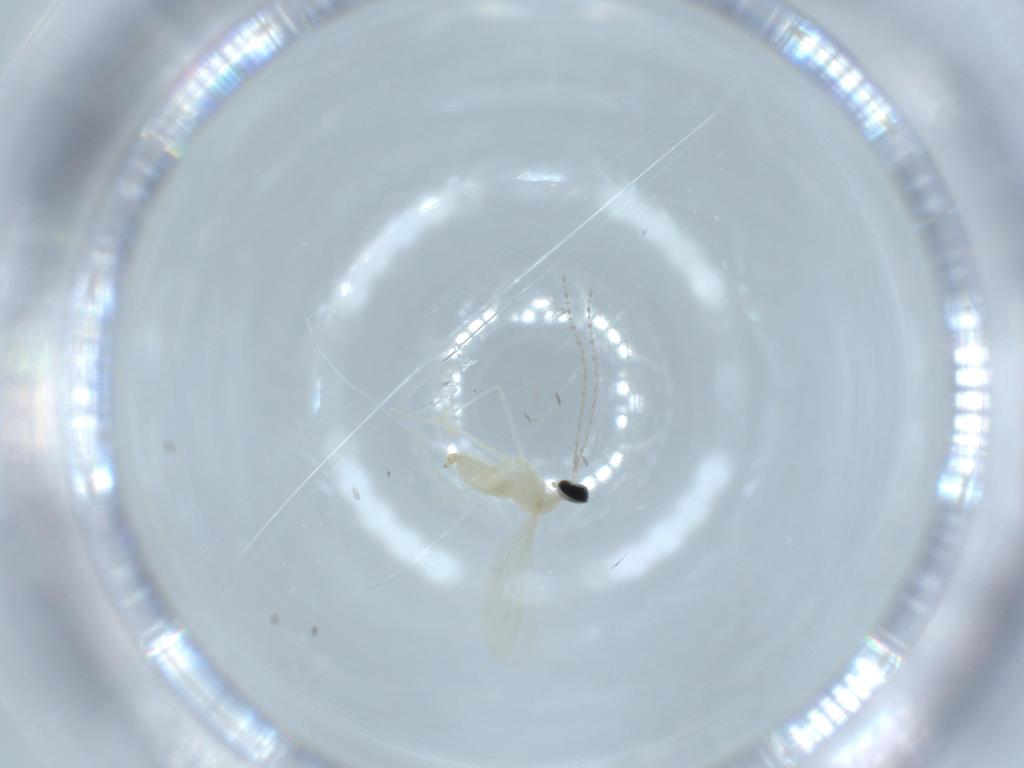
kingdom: Animalia
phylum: Arthropoda
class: Insecta
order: Diptera
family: Cecidomyiidae
